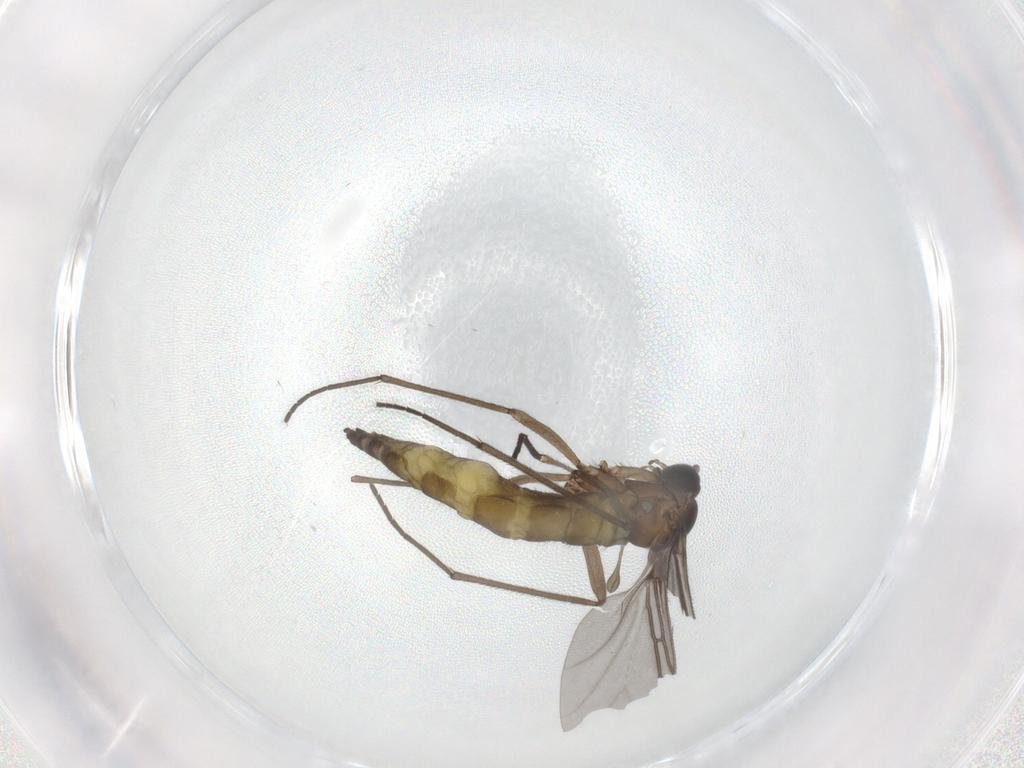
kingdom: Animalia
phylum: Arthropoda
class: Insecta
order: Diptera
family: Sciaridae
